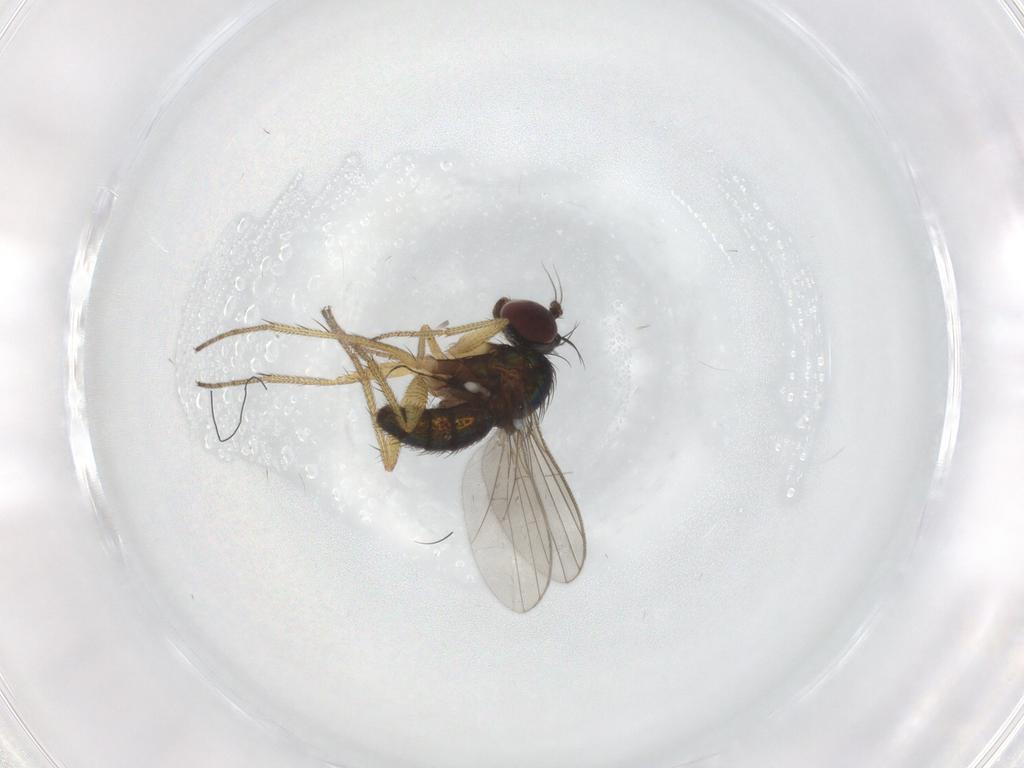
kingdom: Animalia
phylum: Arthropoda
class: Insecta
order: Diptera
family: Dolichopodidae
